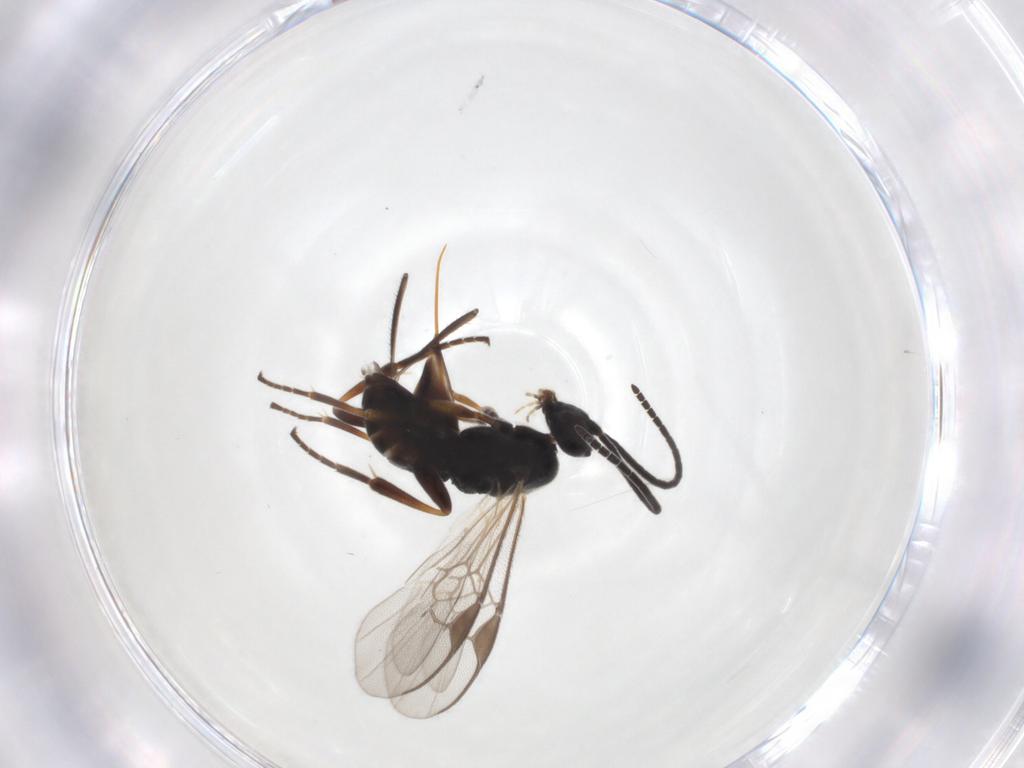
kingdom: Animalia
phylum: Arthropoda
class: Insecta
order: Hymenoptera
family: Braconidae
